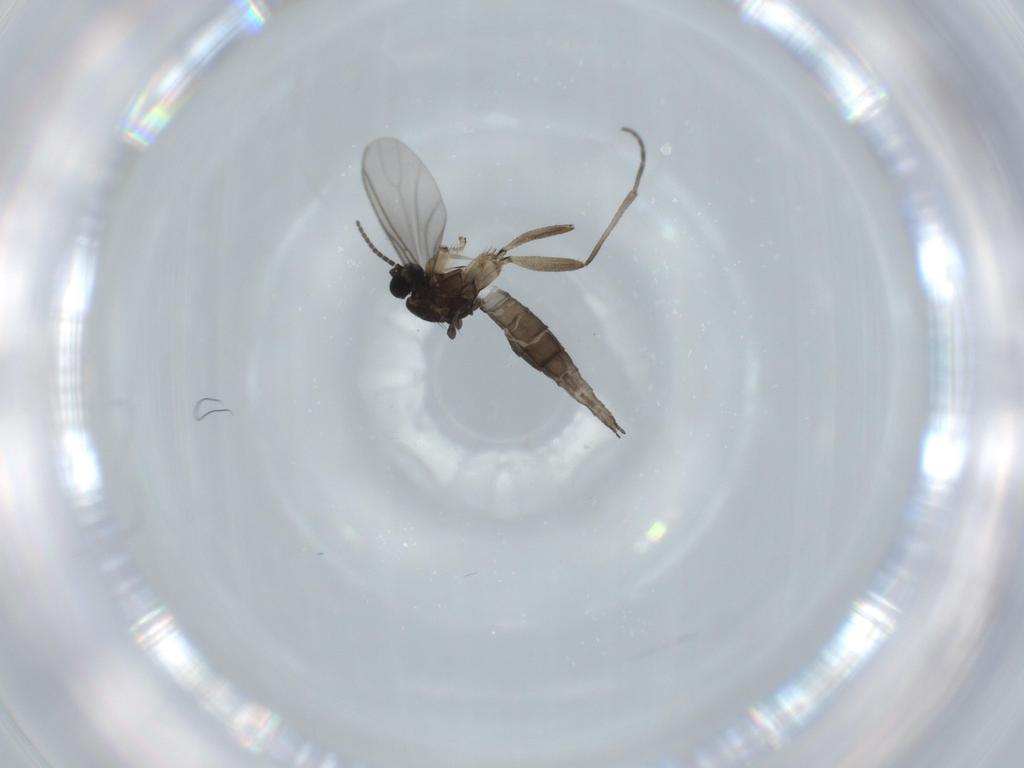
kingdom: Animalia
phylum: Arthropoda
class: Insecta
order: Diptera
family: Sciaridae
